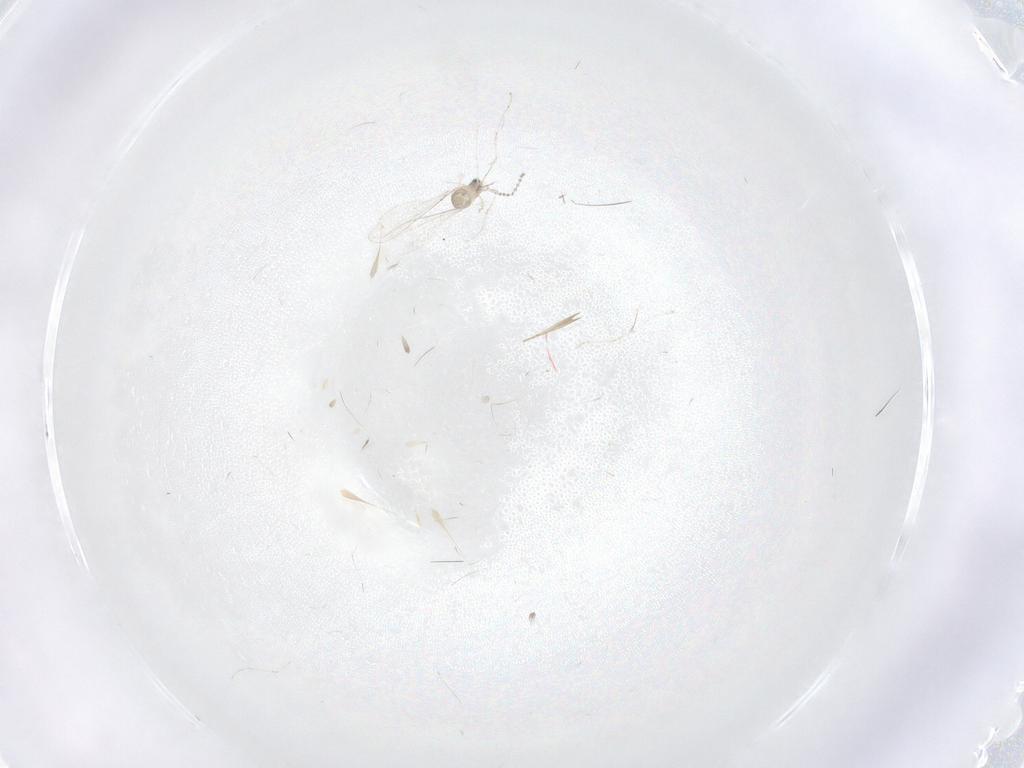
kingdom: Animalia
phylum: Arthropoda
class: Insecta
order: Diptera
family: Cecidomyiidae
